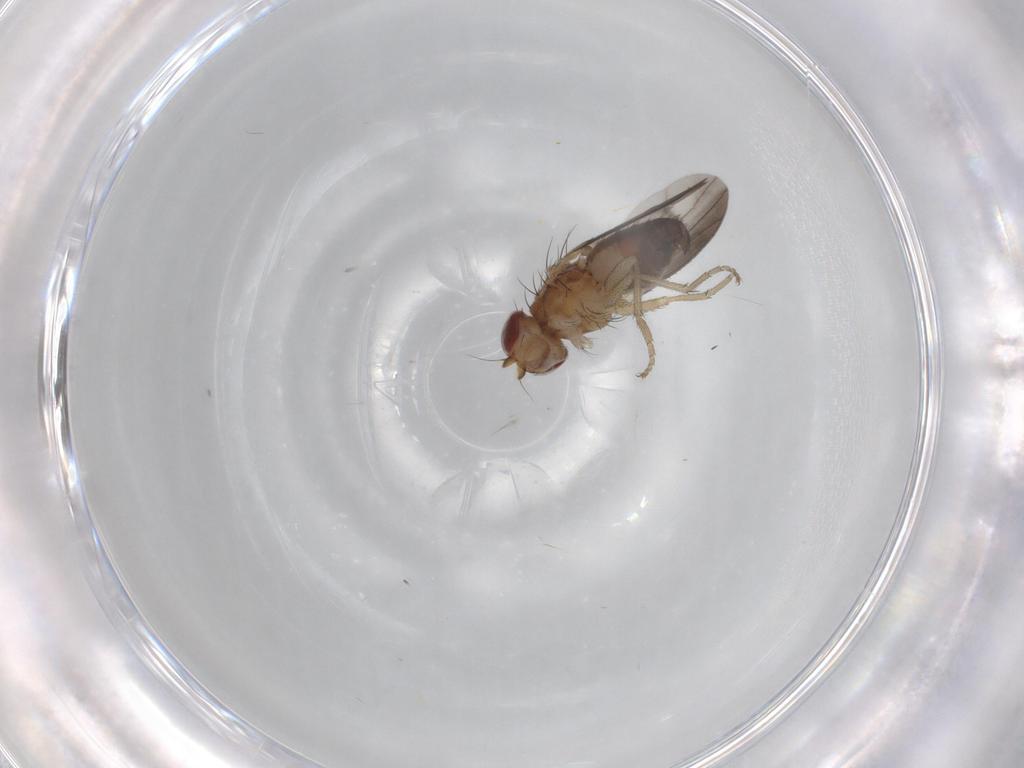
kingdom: Animalia
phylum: Arthropoda
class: Insecta
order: Diptera
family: Heleomyzidae
